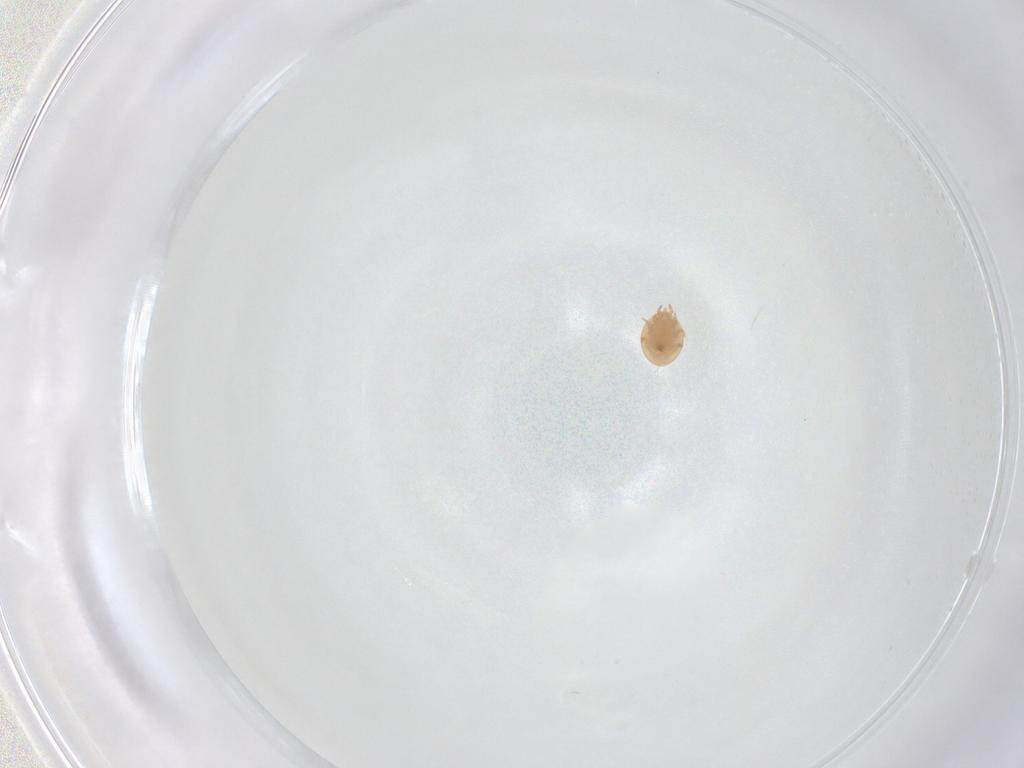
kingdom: Animalia
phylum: Arthropoda
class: Arachnida
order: Mesostigmata
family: Trematuridae
